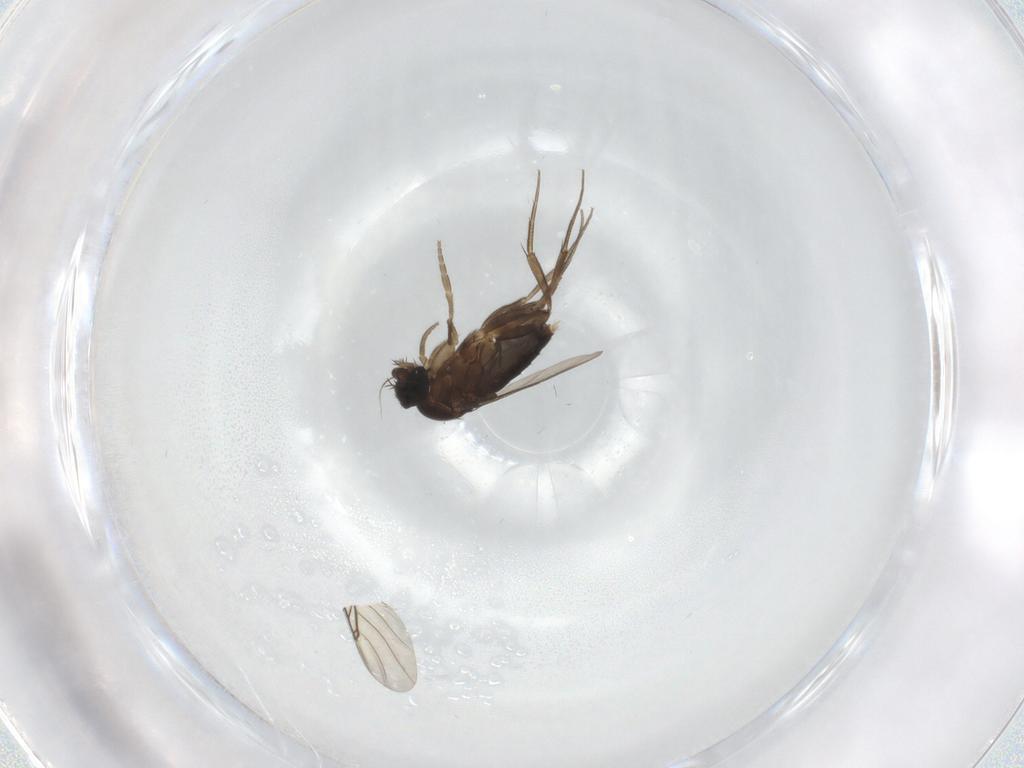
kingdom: Animalia
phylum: Arthropoda
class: Insecta
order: Diptera
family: Phoridae
